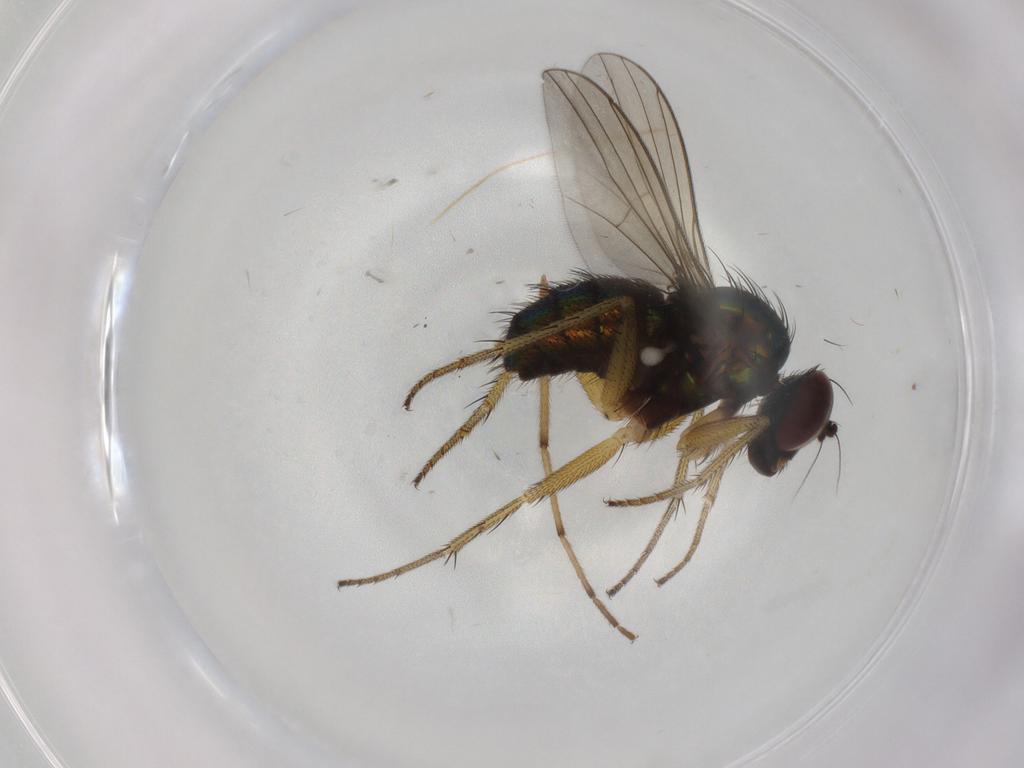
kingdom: Animalia
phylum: Arthropoda
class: Insecta
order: Diptera
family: Dolichopodidae
